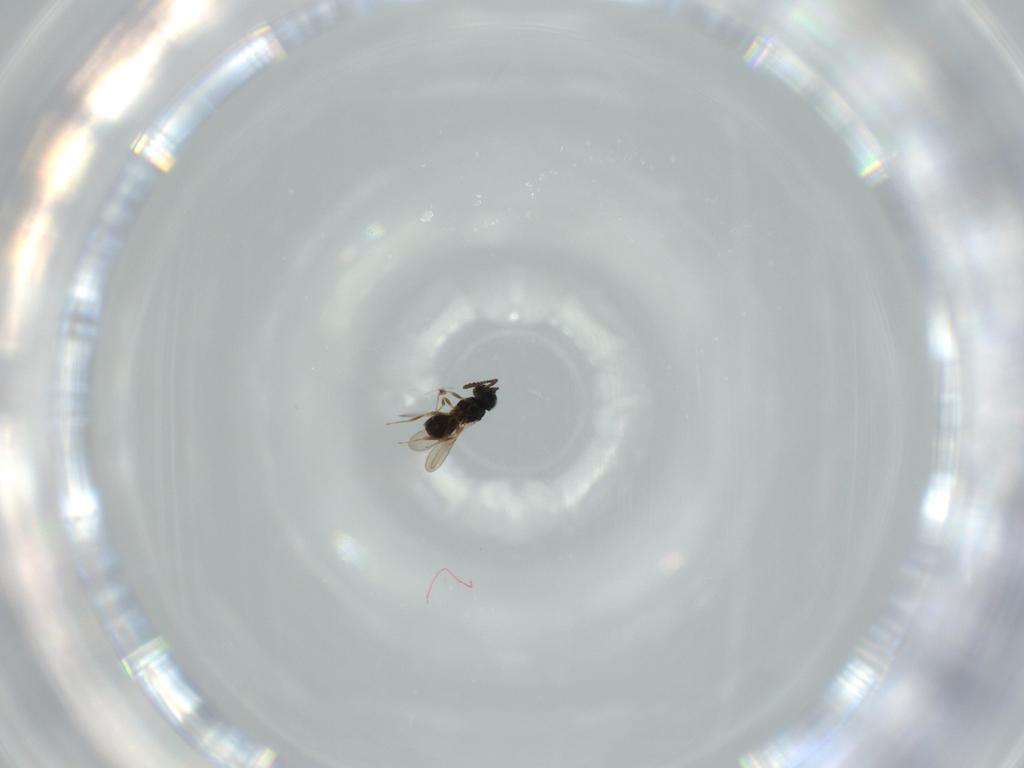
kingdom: Animalia
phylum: Arthropoda
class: Insecta
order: Hymenoptera
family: Scelionidae
